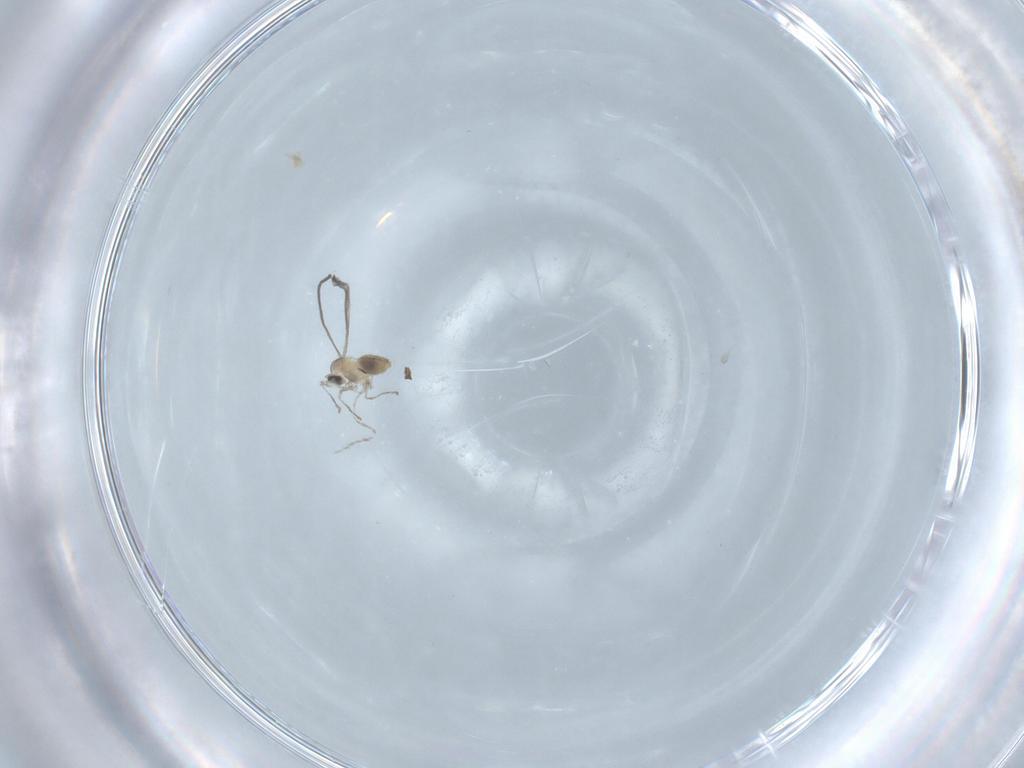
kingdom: Animalia
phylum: Arthropoda
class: Insecta
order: Diptera
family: Cecidomyiidae
